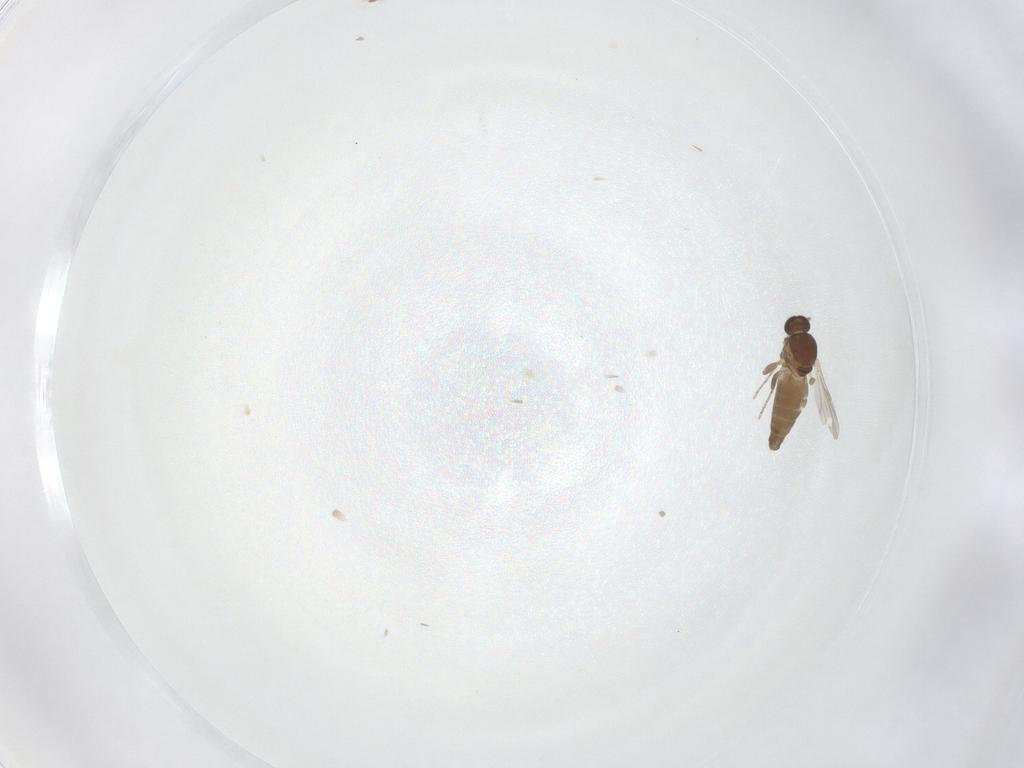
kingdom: Animalia
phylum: Arthropoda
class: Insecta
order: Diptera
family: Ceratopogonidae
